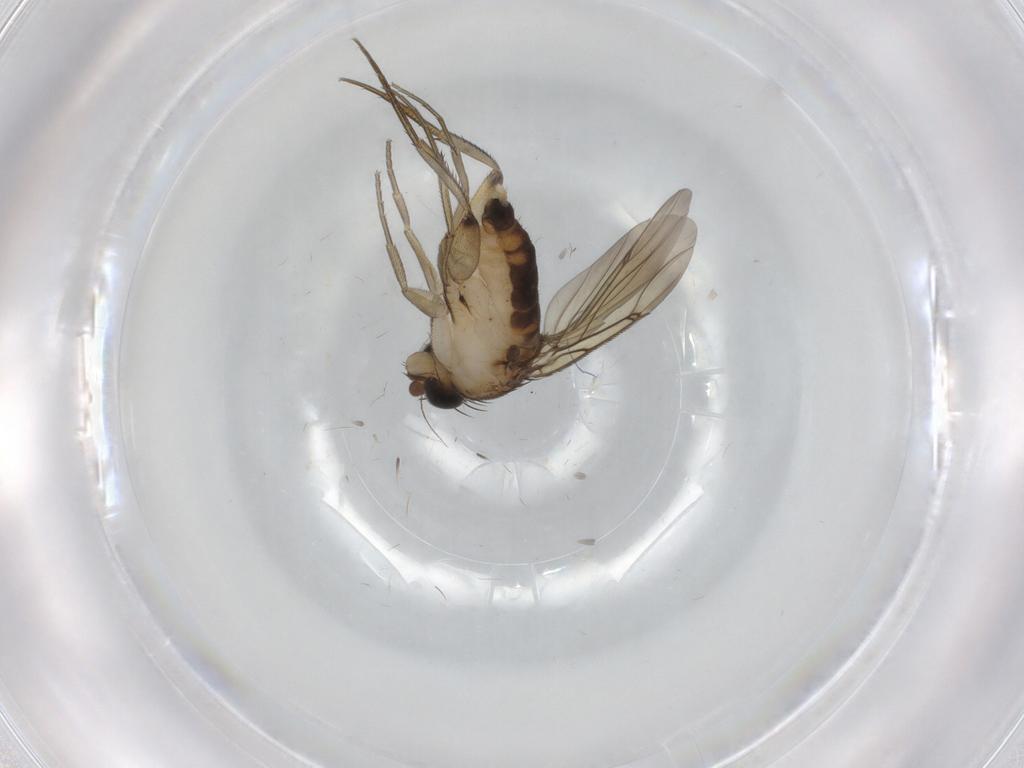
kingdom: Animalia
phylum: Arthropoda
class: Insecta
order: Diptera
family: Phoridae
